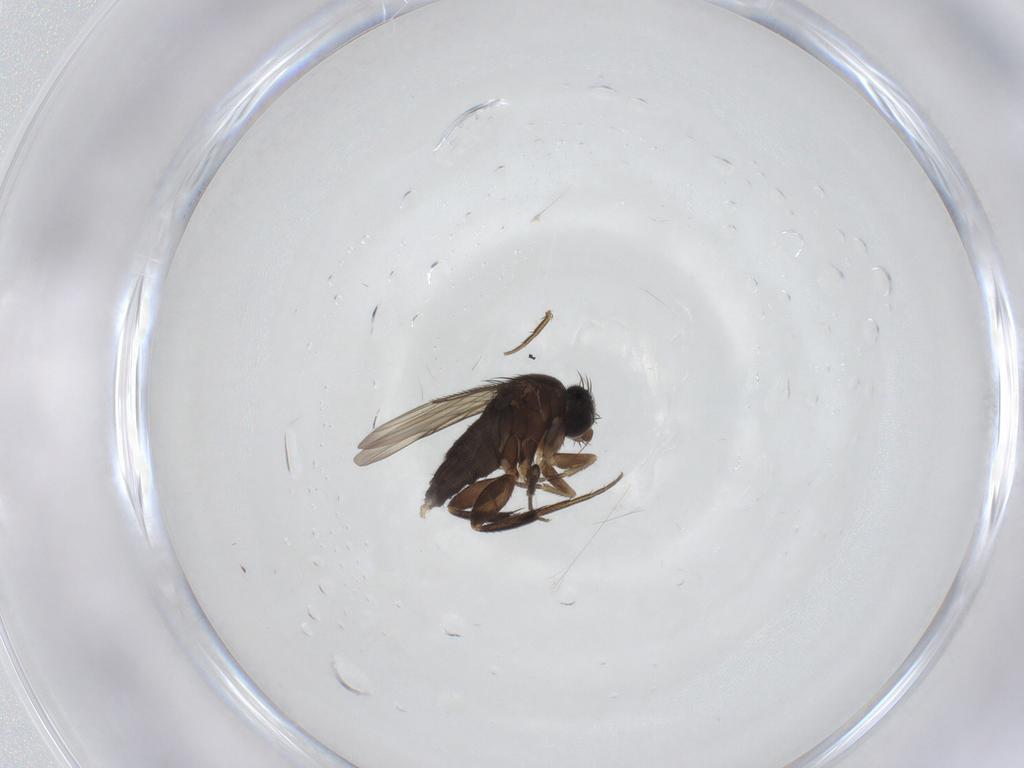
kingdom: Animalia
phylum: Arthropoda
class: Insecta
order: Diptera
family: Phoridae
